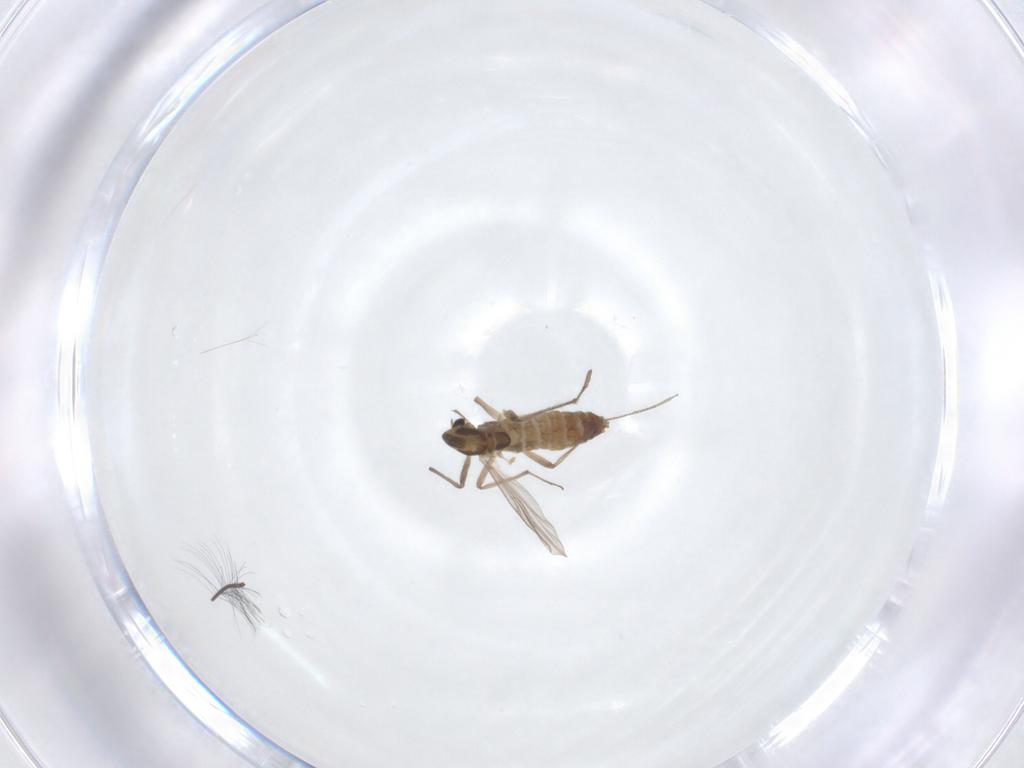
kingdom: Animalia
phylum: Arthropoda
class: Insecta
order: Diptera
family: Chironomidae
